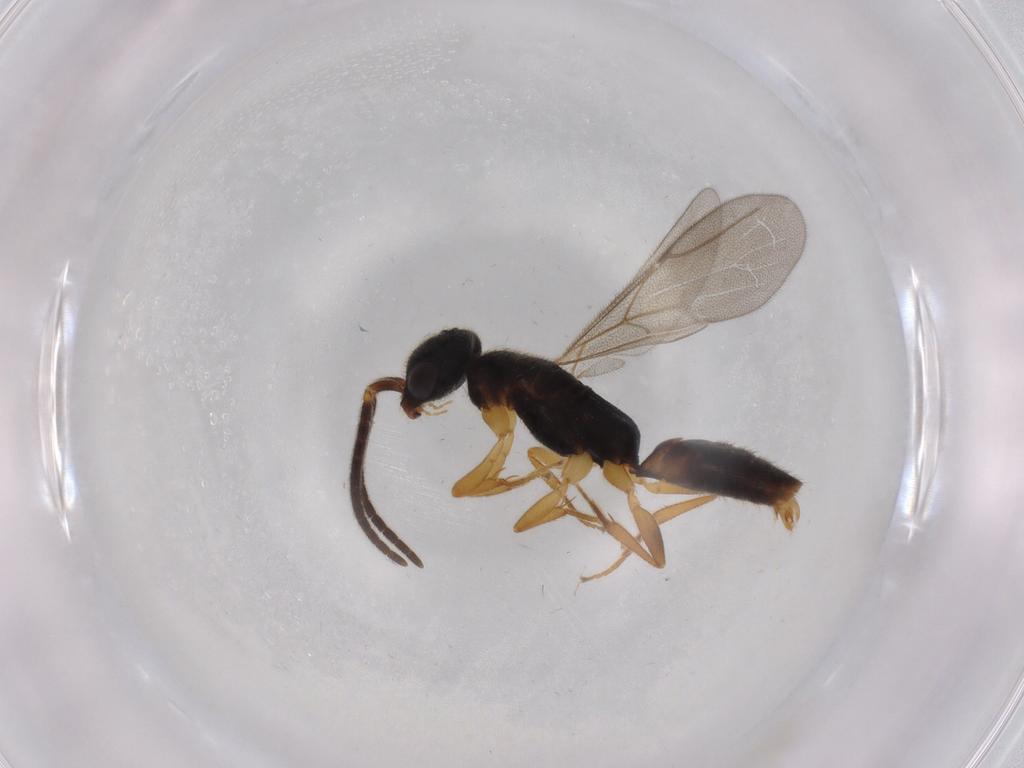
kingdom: Animalia
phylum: Arthropoda
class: Insecta
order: Hymenoptera
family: Bethylidae
